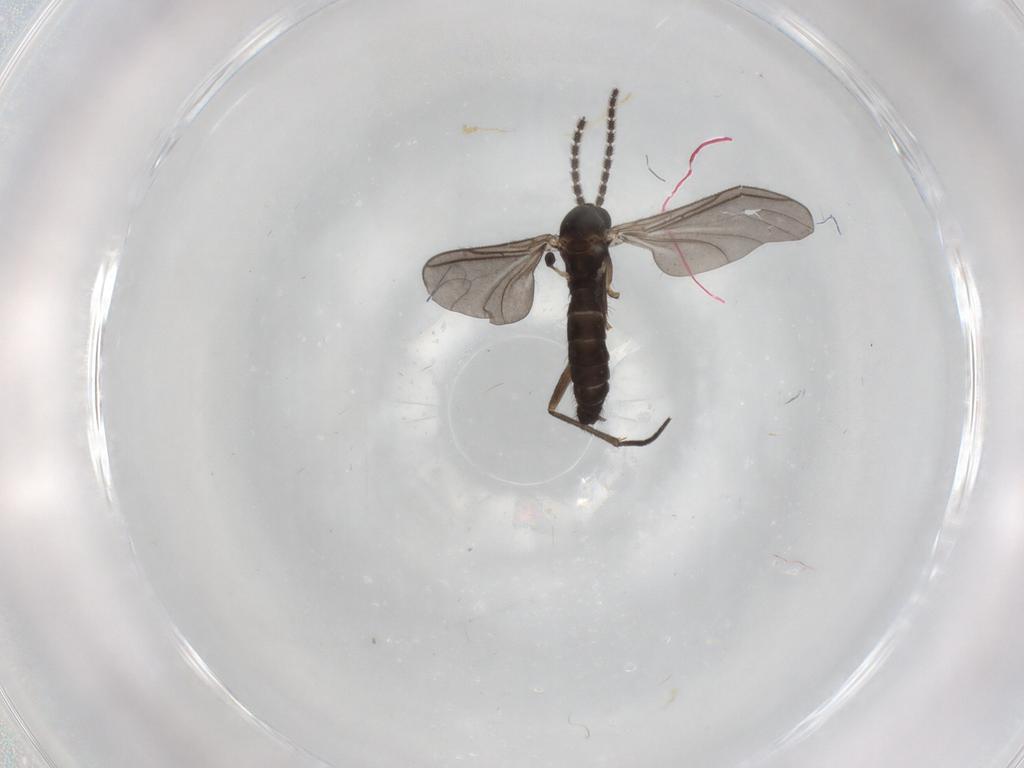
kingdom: Animalia
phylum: Arthropoda
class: Insecta
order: Diptera
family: Sciaridae
